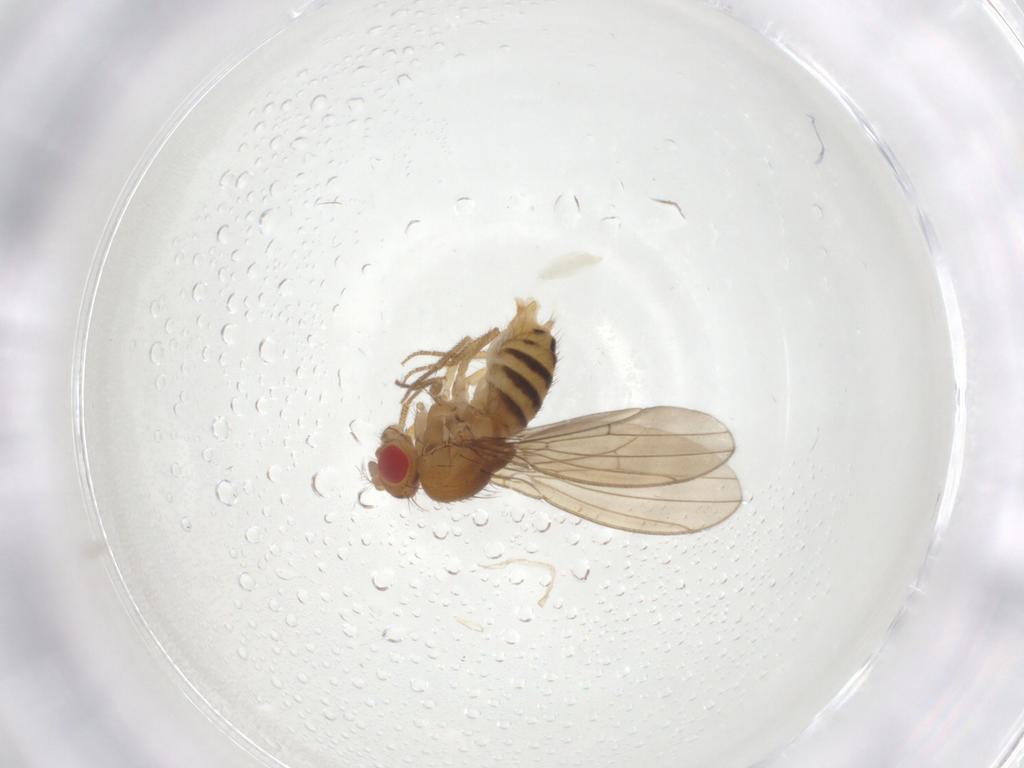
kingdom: Animalia
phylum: Arthropoda
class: Insecta
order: Diptera
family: Drosophilidae
